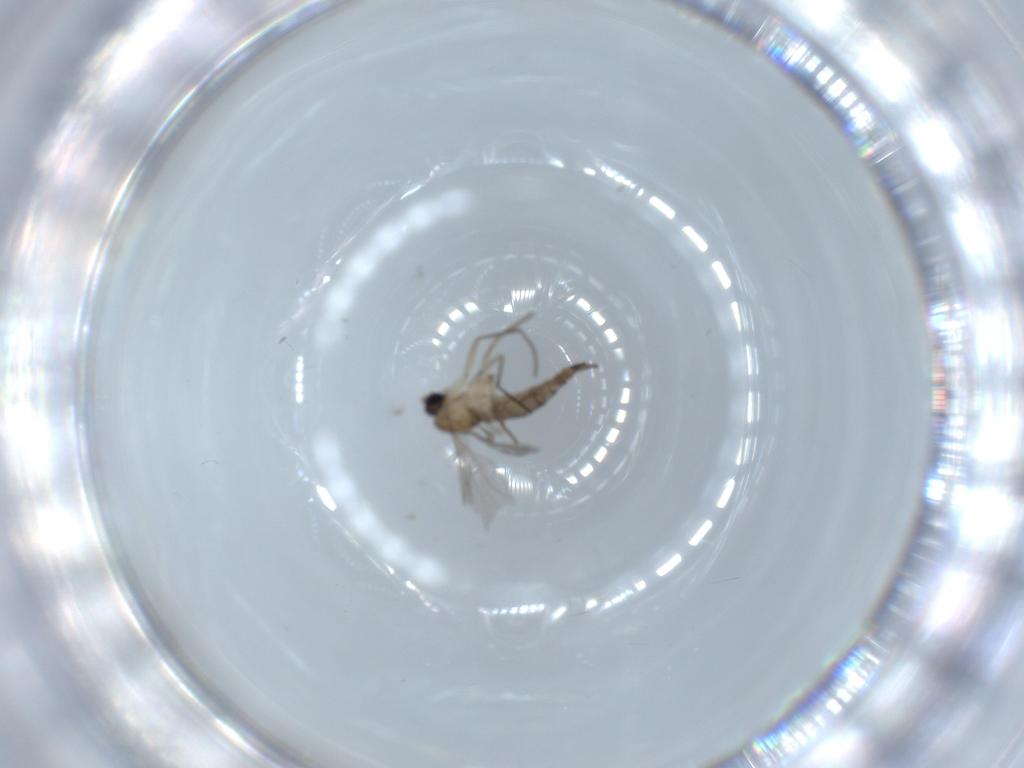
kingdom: Animalia
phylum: Arthropoda
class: Insecta
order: Diptera
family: Sciaridae
